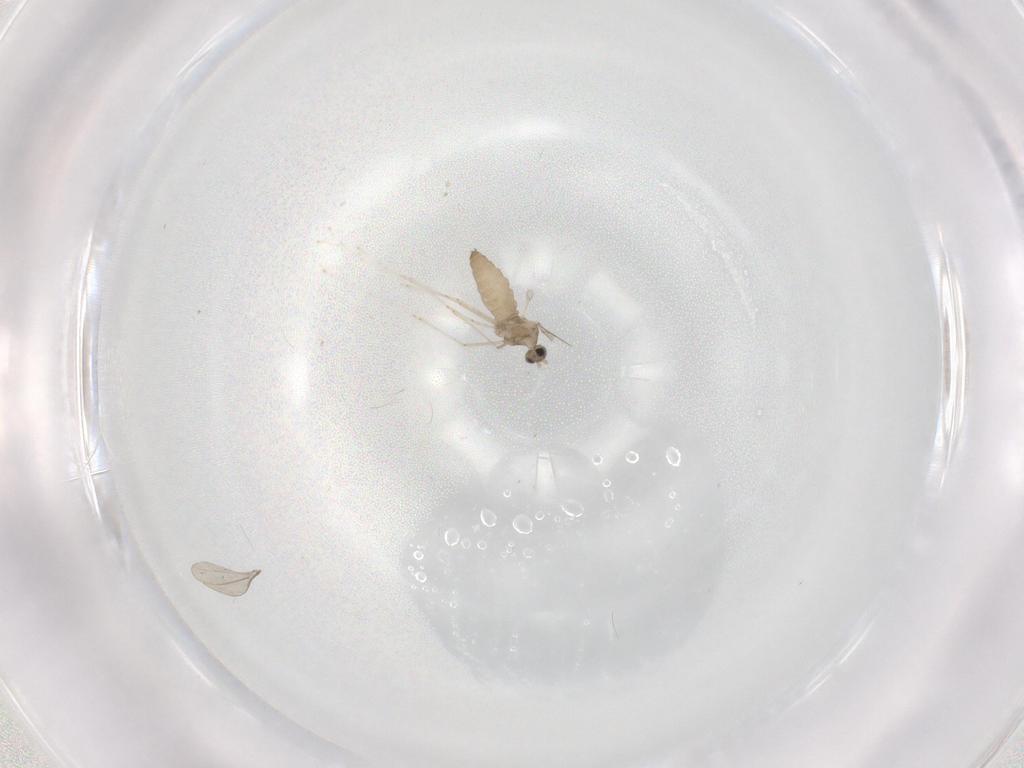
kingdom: Animalia
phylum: Arthropoda
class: Insecta
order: Diptera
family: Cecidomyiidae
